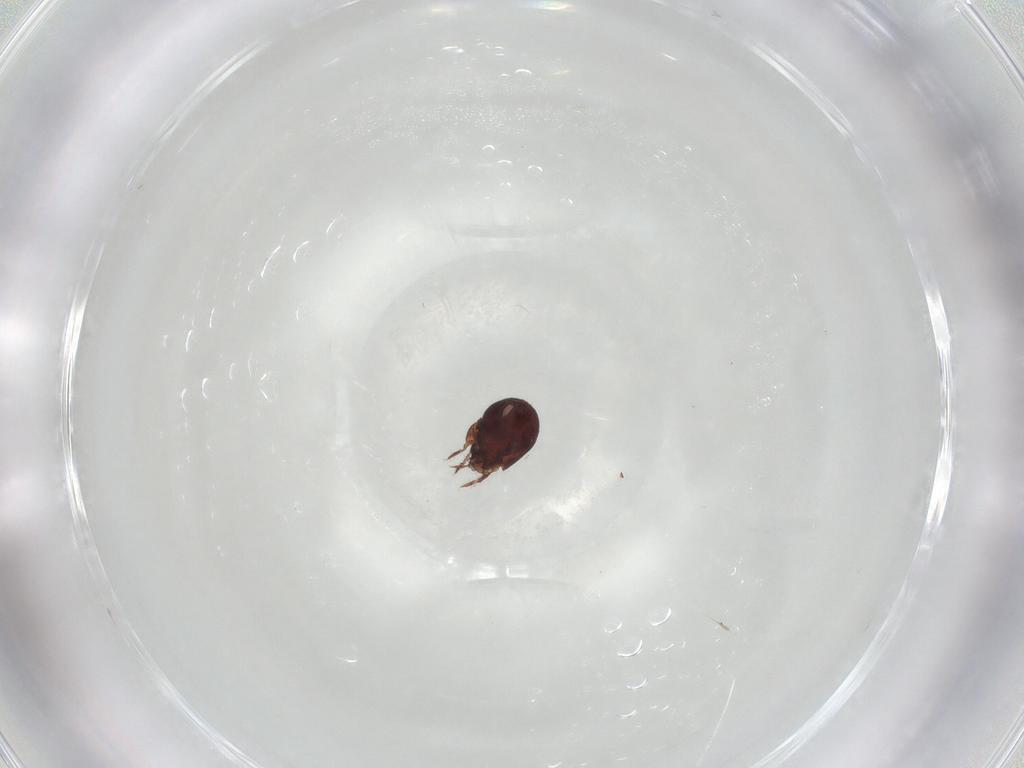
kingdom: Animalia
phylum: Arthropoda
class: Arachnida
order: Sarcoptiformes
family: Humerobatidae
